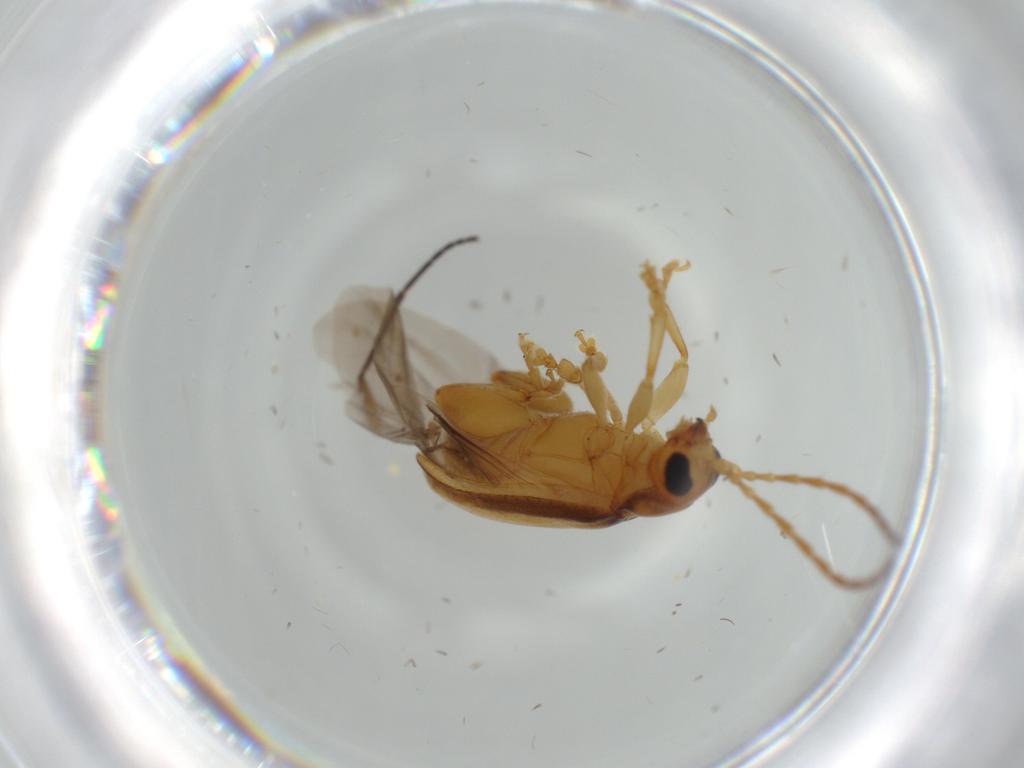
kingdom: Animalia
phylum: Arthropoda
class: Insecta
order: Coleoptera
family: Chrysomelidae
